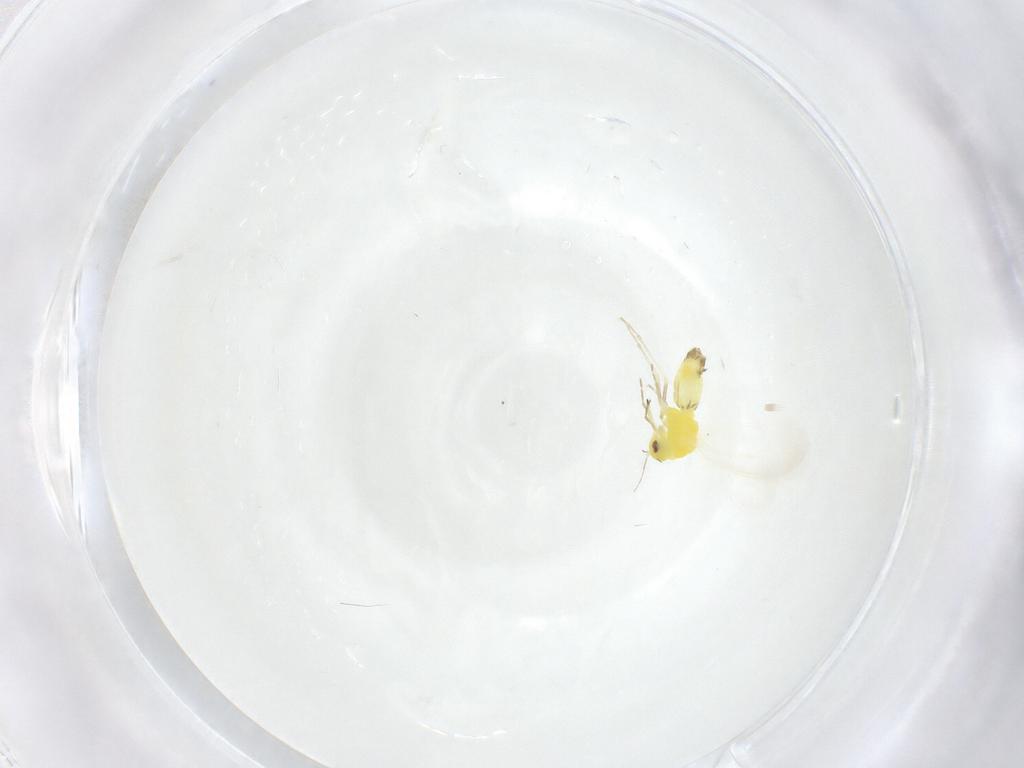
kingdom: Animalia
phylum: Arthropoda
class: Insecta
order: Hemiptera
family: Aleyrodidae
